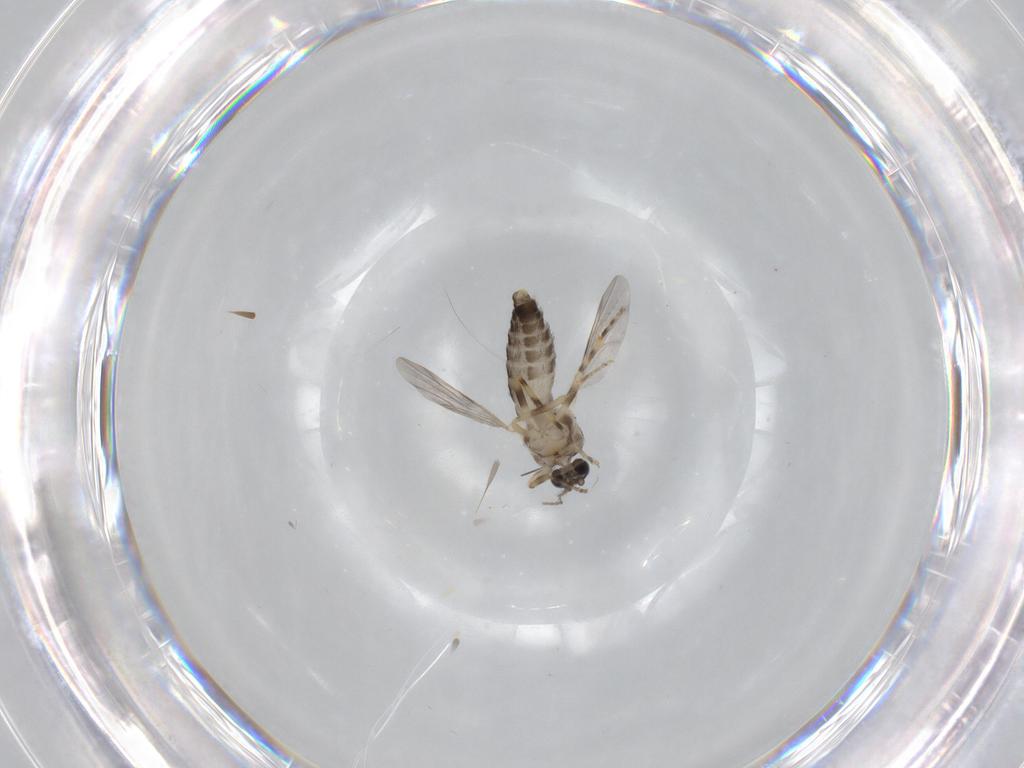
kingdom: Animalia
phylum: Arthropoda
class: Insecta
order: Diptera
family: Ceratopogonidae
